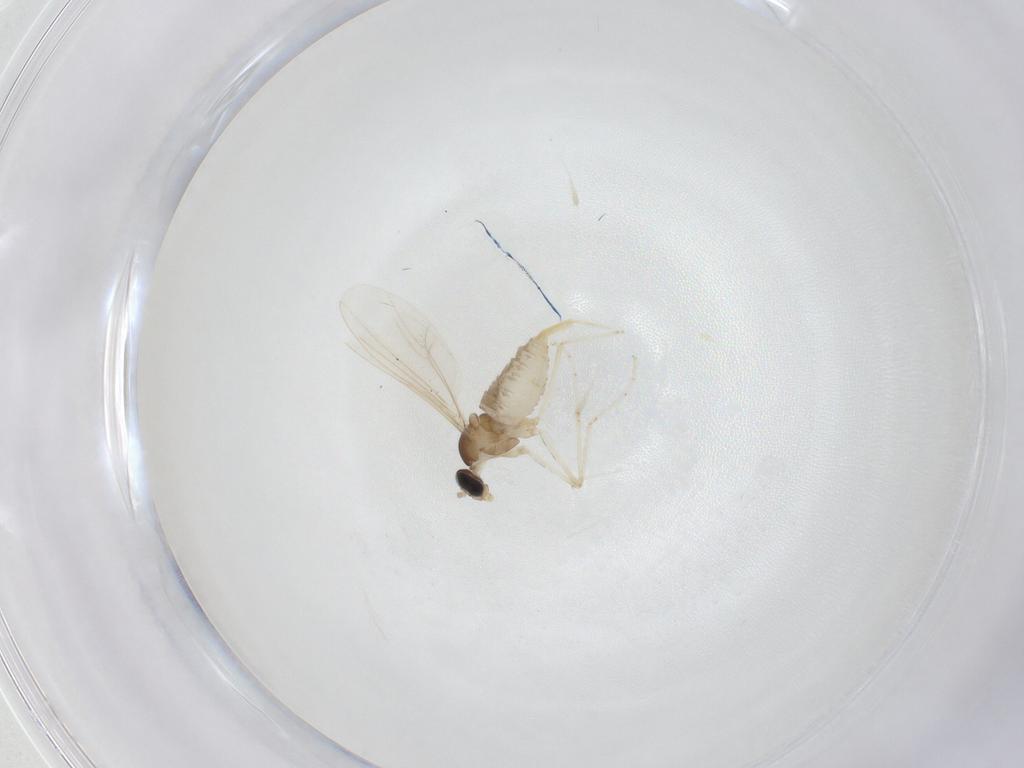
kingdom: Animalia
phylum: Arthropoda
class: Insecta
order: Diptera
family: Cecidomyiidae
